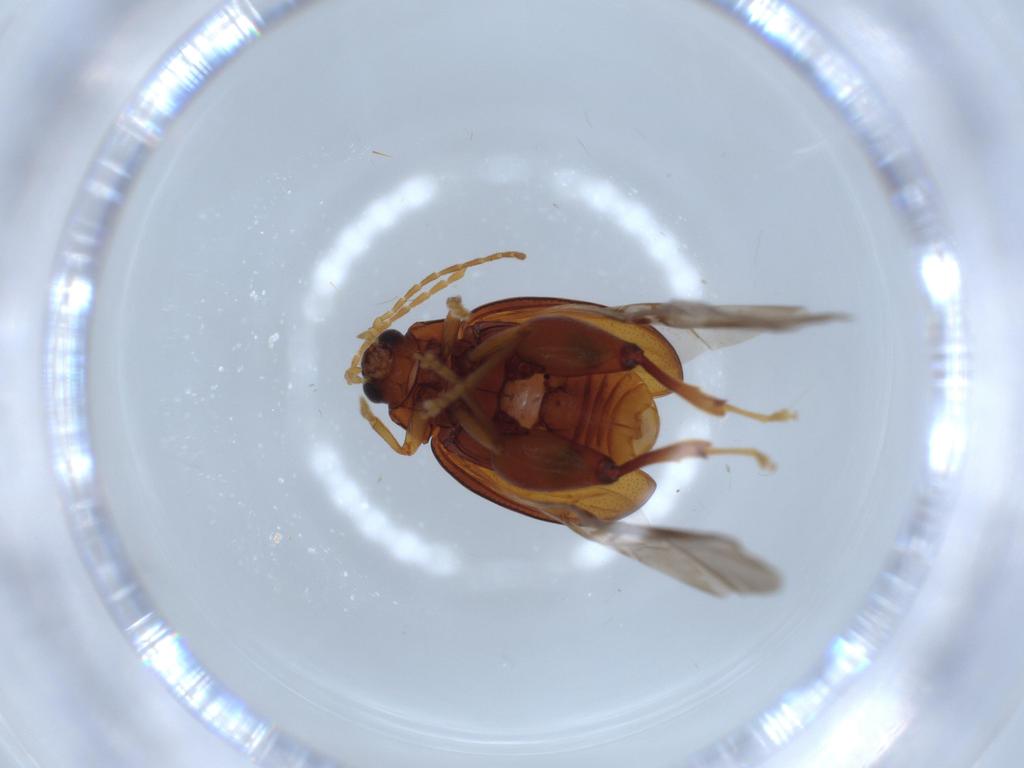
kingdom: Animalia
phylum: Arthropoda
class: Insecta
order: Coleoptera
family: Chrysomelidae
